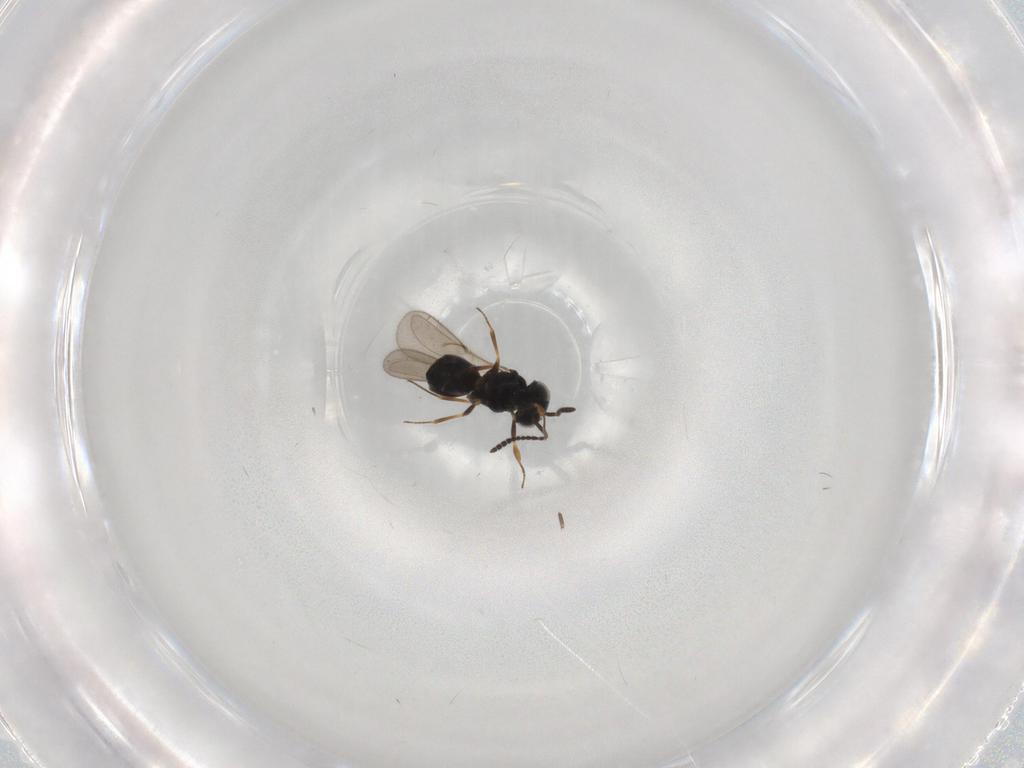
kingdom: Animalia
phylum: Arthropoda
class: Insecta
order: Hymenoptera
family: Scelionidae
